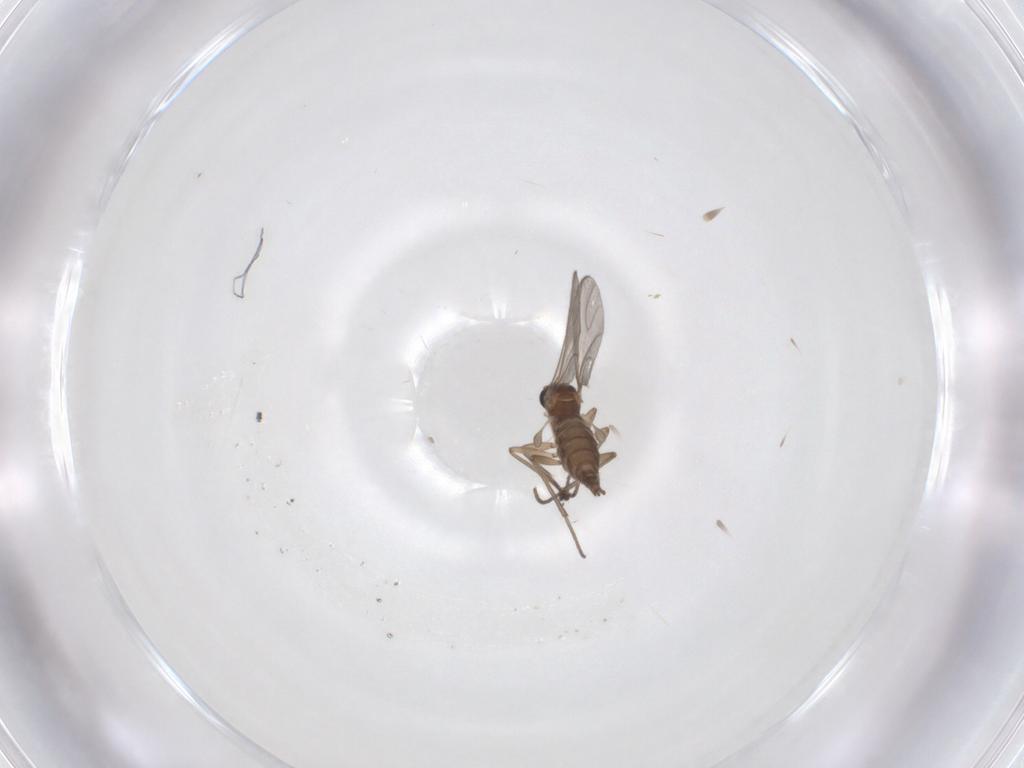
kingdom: Animalia
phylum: Arthropoda
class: Insecta
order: Diptera
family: Sciaridae
